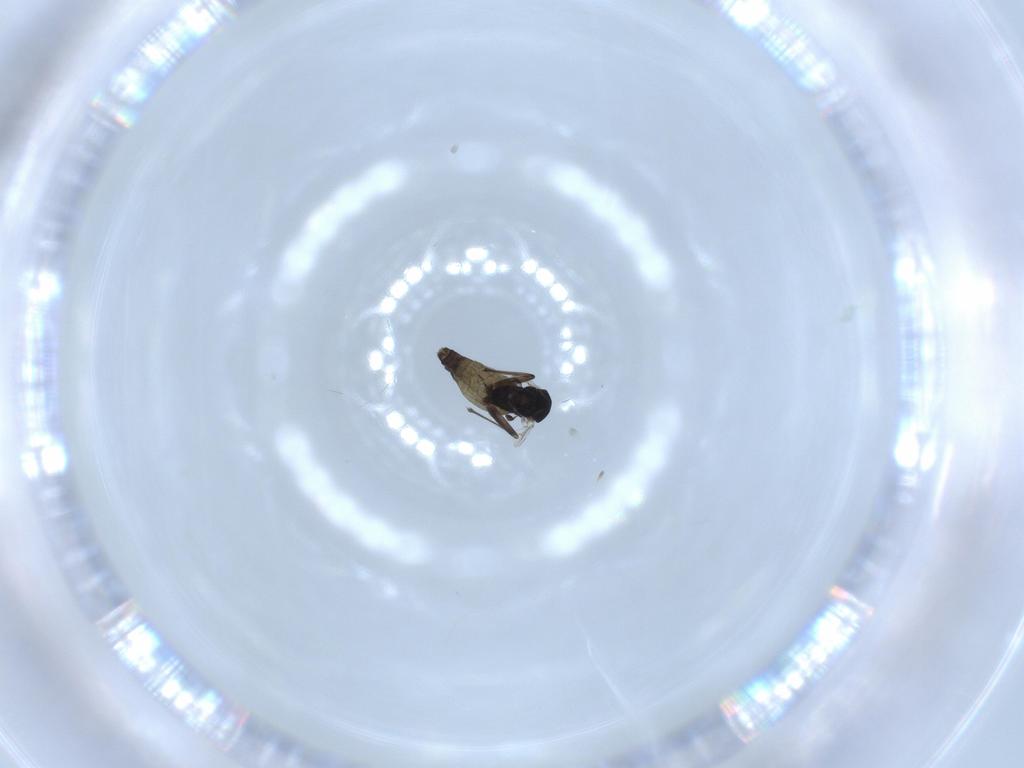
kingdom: Animalia
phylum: Arthropoda
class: Insecta
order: Diptera
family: Chironomidae
